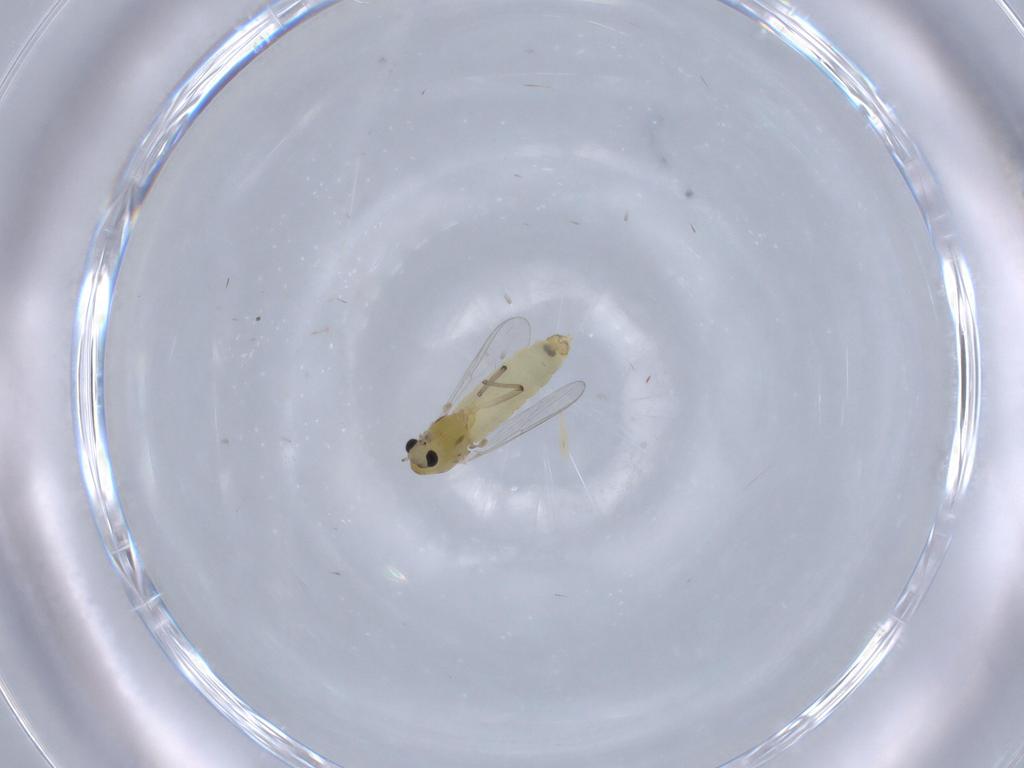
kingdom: Animalia
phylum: Arthropoda
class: Insecta
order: Diptera
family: Chironomidae
